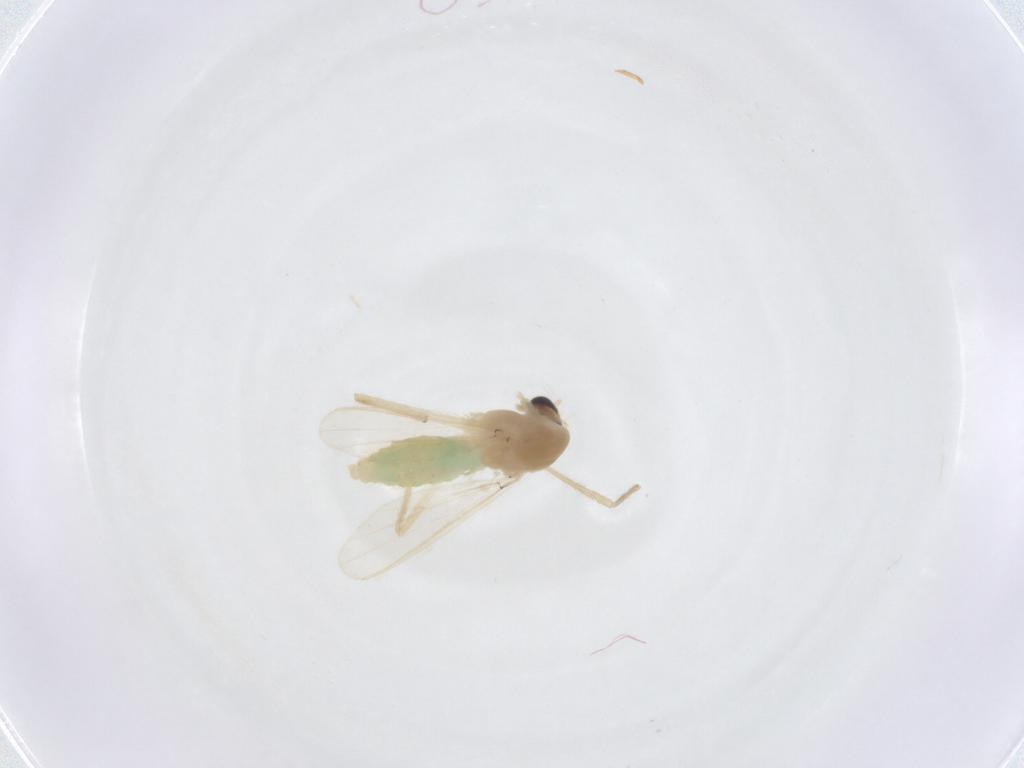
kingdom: Animalia
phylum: Arthropoda
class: Insecta
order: Diptera
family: Chironomidae
